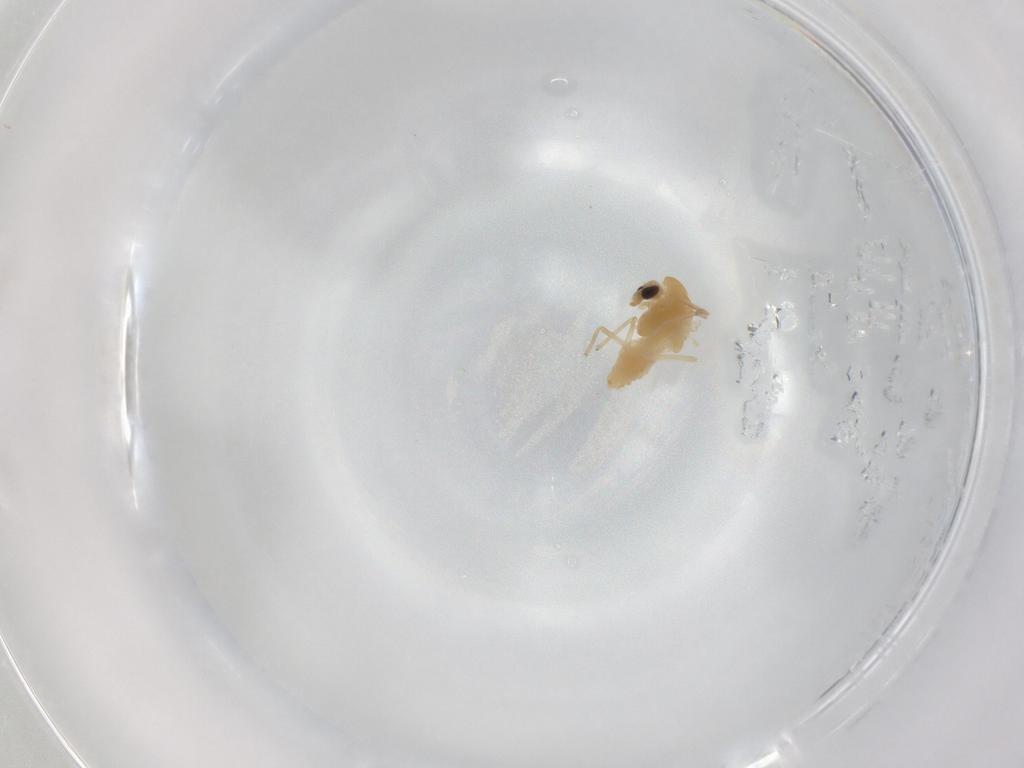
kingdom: Animalia
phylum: Arthropoda
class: Insecta
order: Diptera
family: Chironomidae
